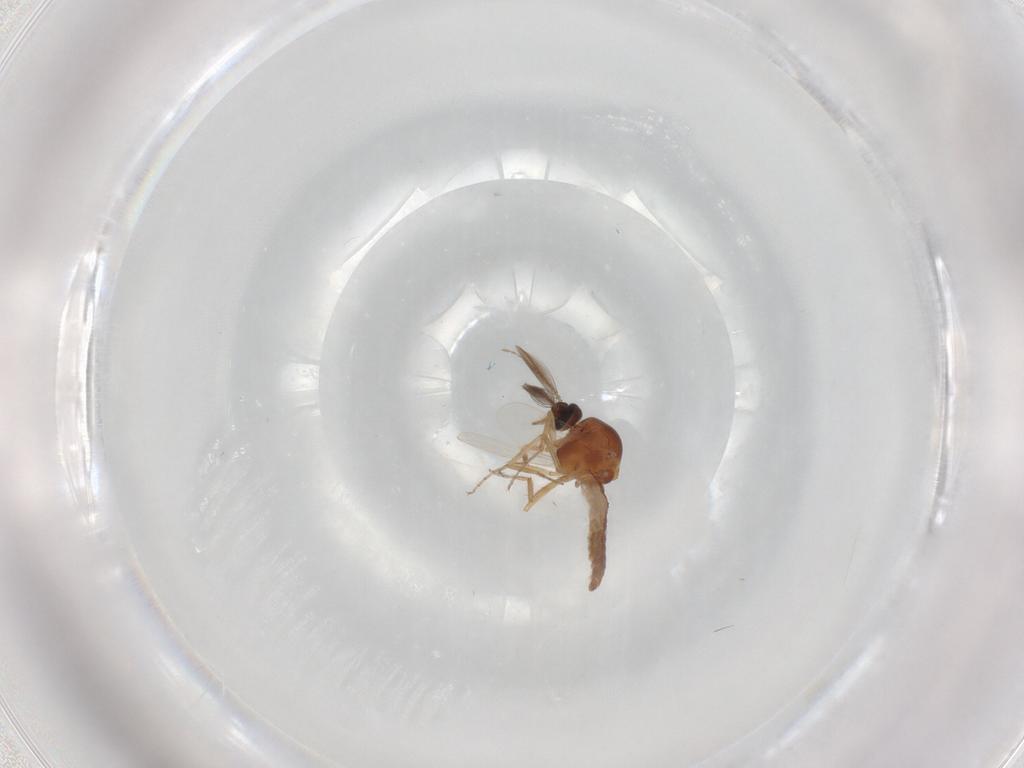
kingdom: Animalia
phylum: Arthropoda
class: Insecta
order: Diptera
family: Ceratopogonidae
